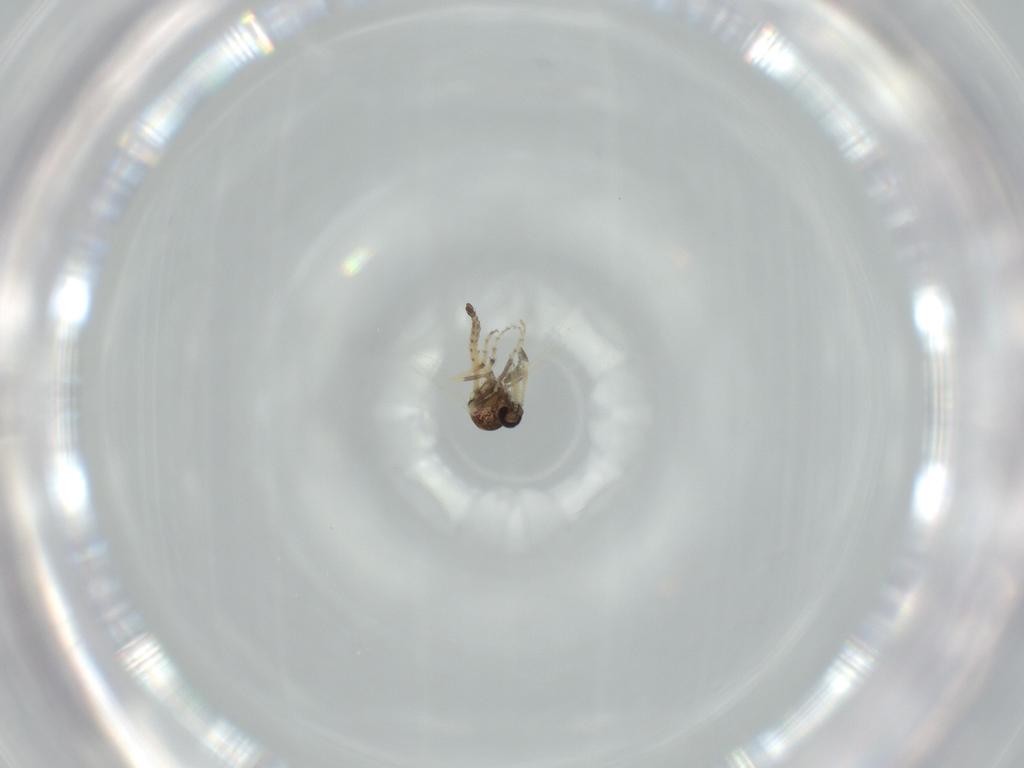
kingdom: Animalia
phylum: Arthropoda
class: Insecta
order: Diptera
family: Ceratopogonidae
